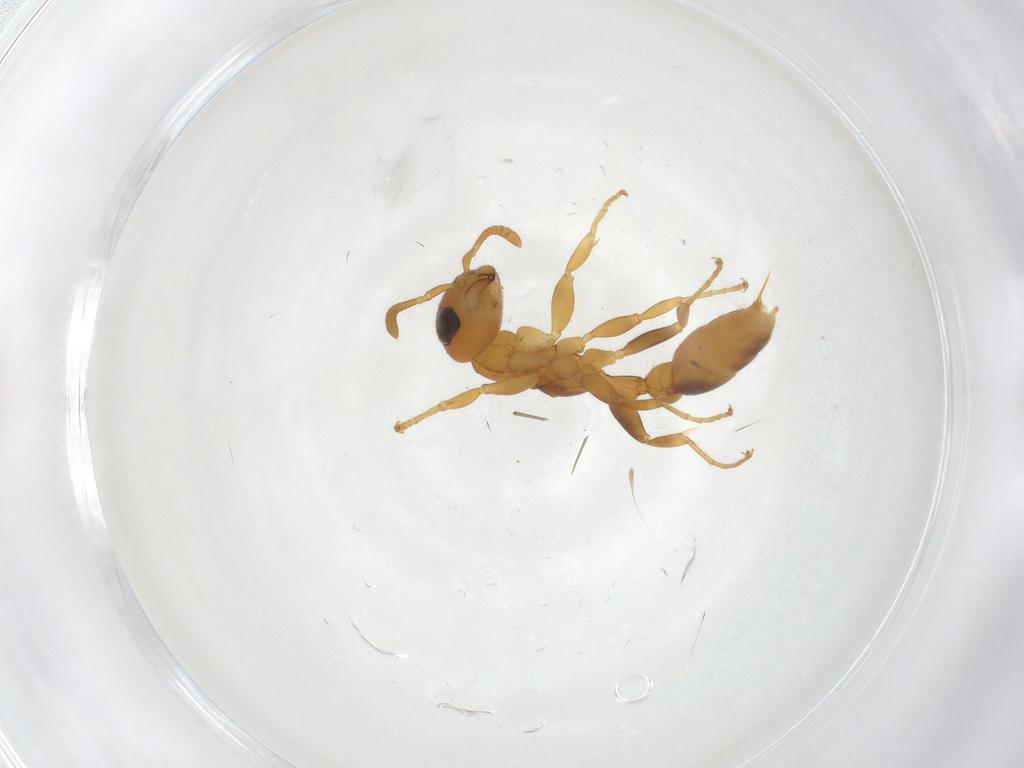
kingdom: Animalia
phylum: Arthropoda
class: Insecta
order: Hymenoptera
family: Formicidae
